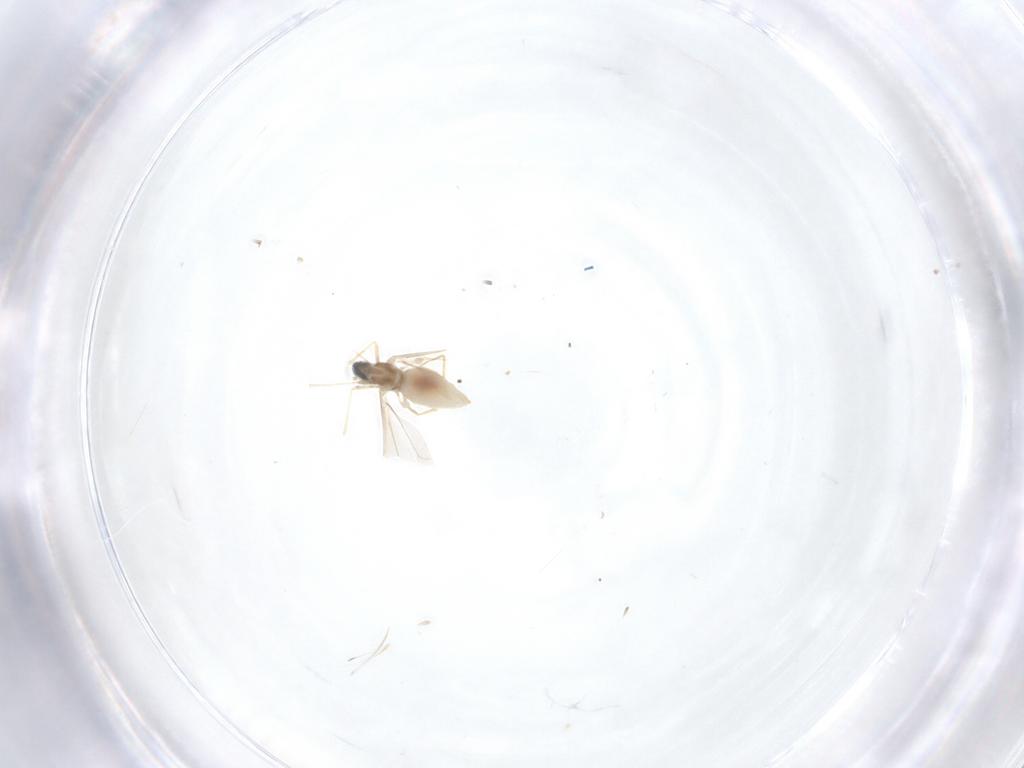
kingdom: Animalia
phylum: Arthropoda
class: Insecta
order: Diptera
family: Cecidomyiidae
